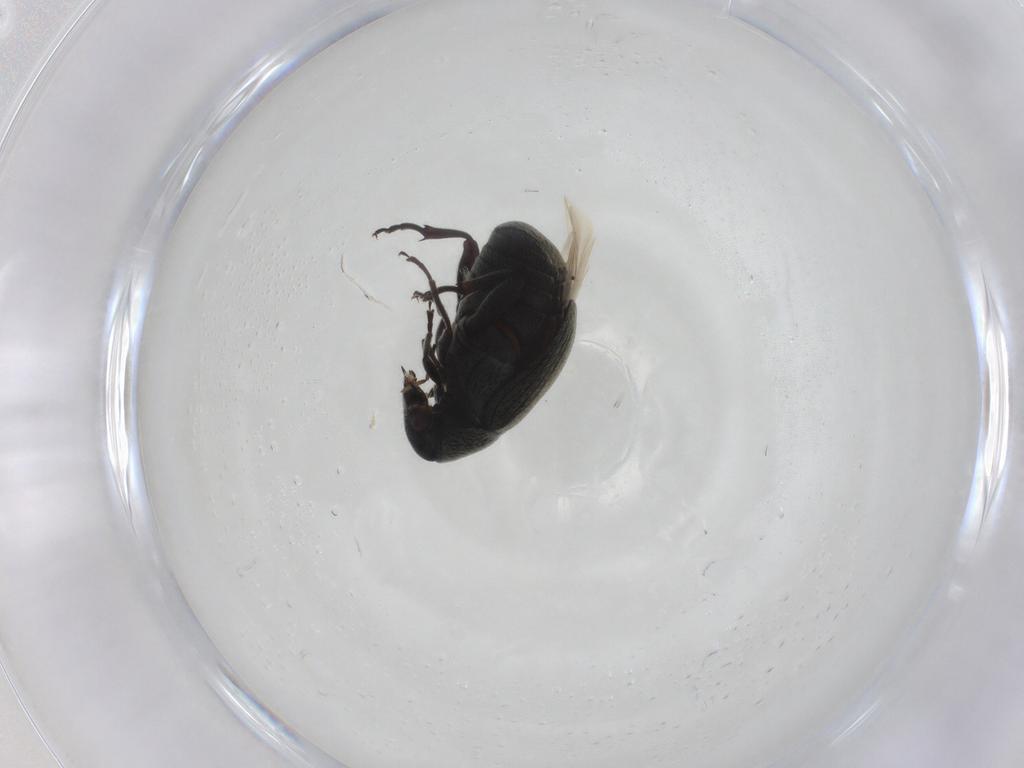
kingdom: Animalia
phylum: Arthropoda
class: Insecta
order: Coleoptera
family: Chrysomelidae
